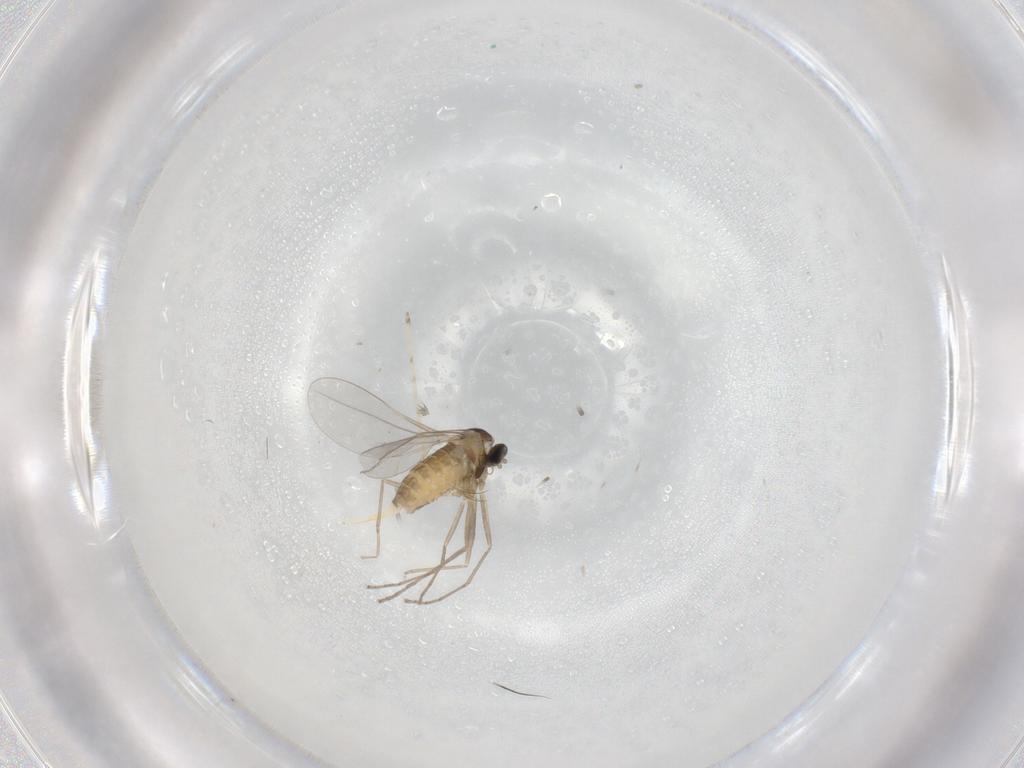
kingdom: Animalia
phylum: Arthropoda
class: Insecta
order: Diptera
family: Cecidomyiidae
